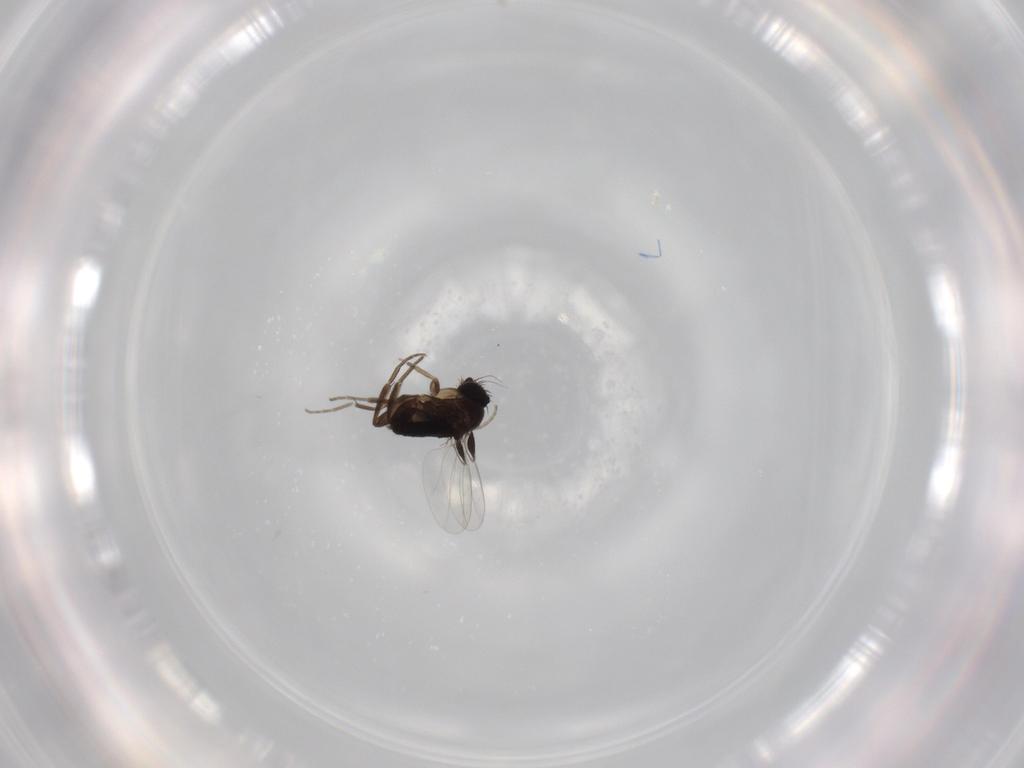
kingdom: Animalia
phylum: Arthropoda
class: Insecta
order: Diptera
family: Phoridae
